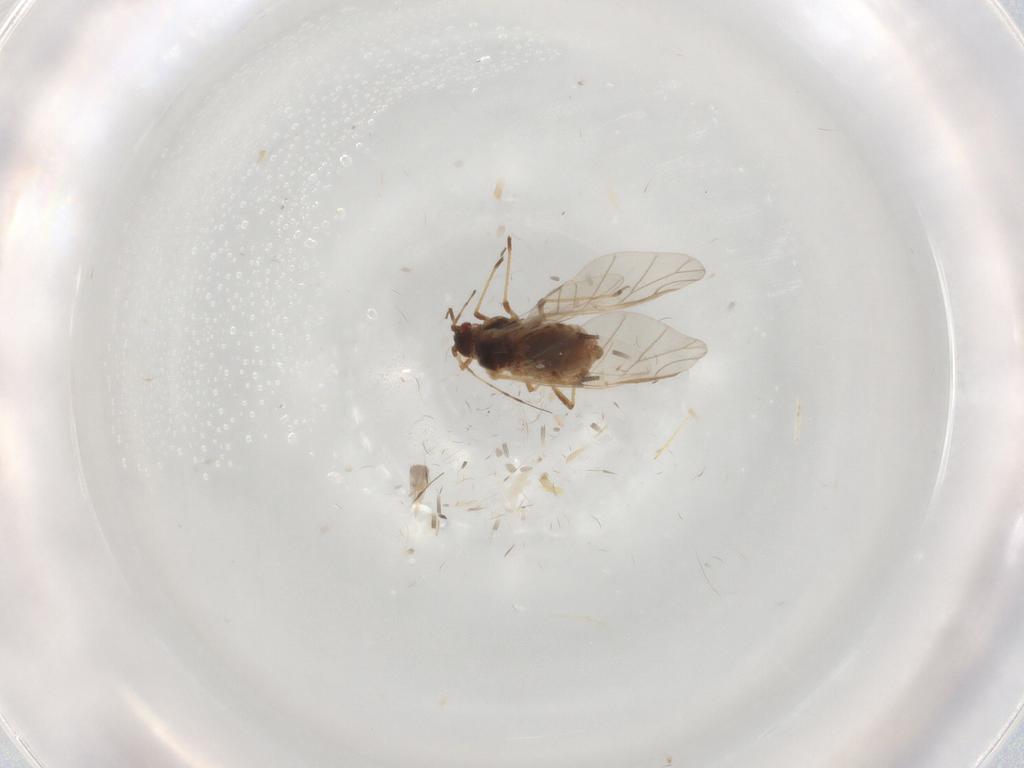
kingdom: Animalia
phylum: Arthropoda
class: Insecta
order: Hemiptera
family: Aphididae
